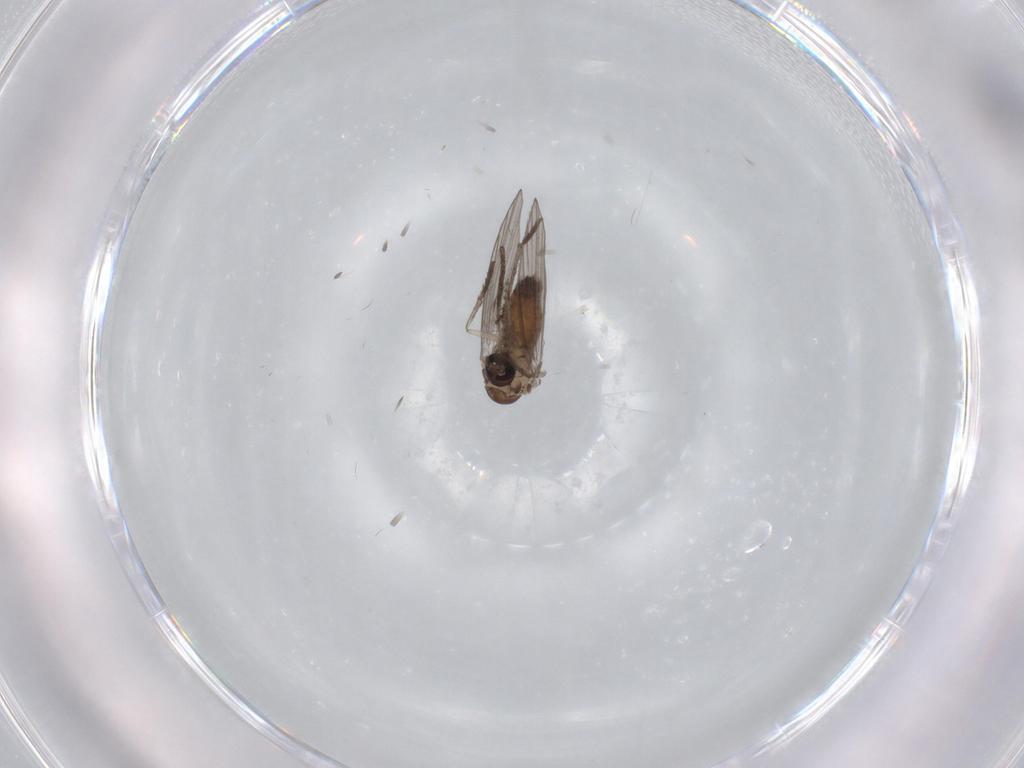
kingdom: Animalia
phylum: Arthropoda
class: Insecta
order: Diptera
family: Psychodidae
